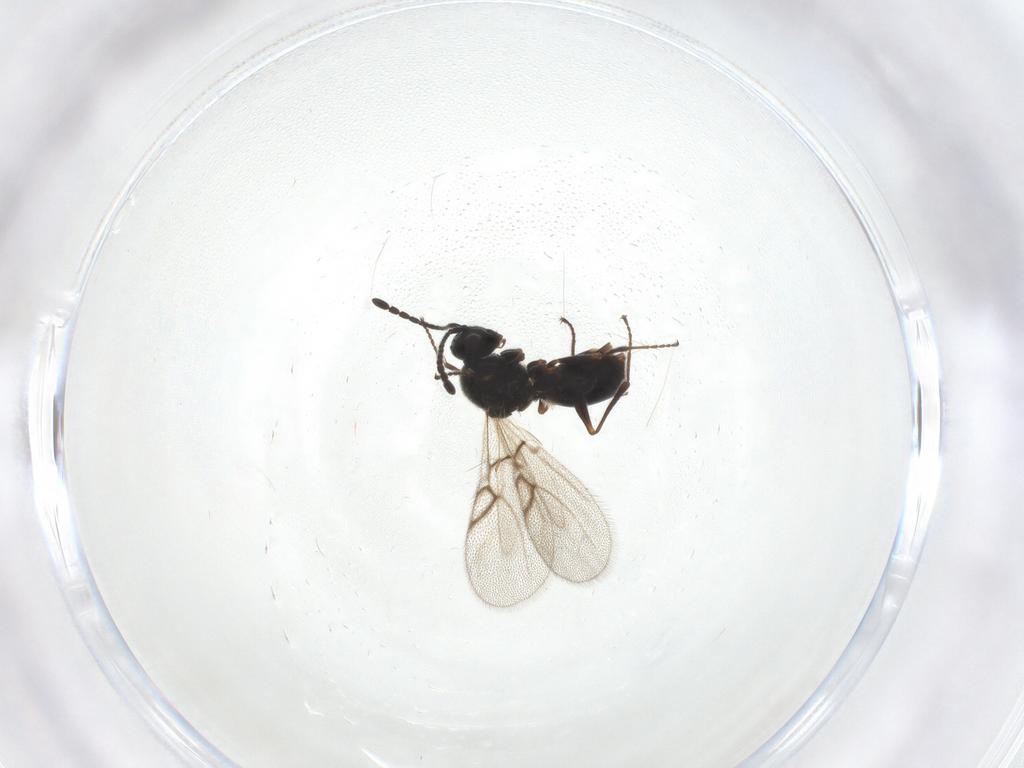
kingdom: Animalia
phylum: Arthropoda
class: Insecta
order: Hymenoptera
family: Figitidae
